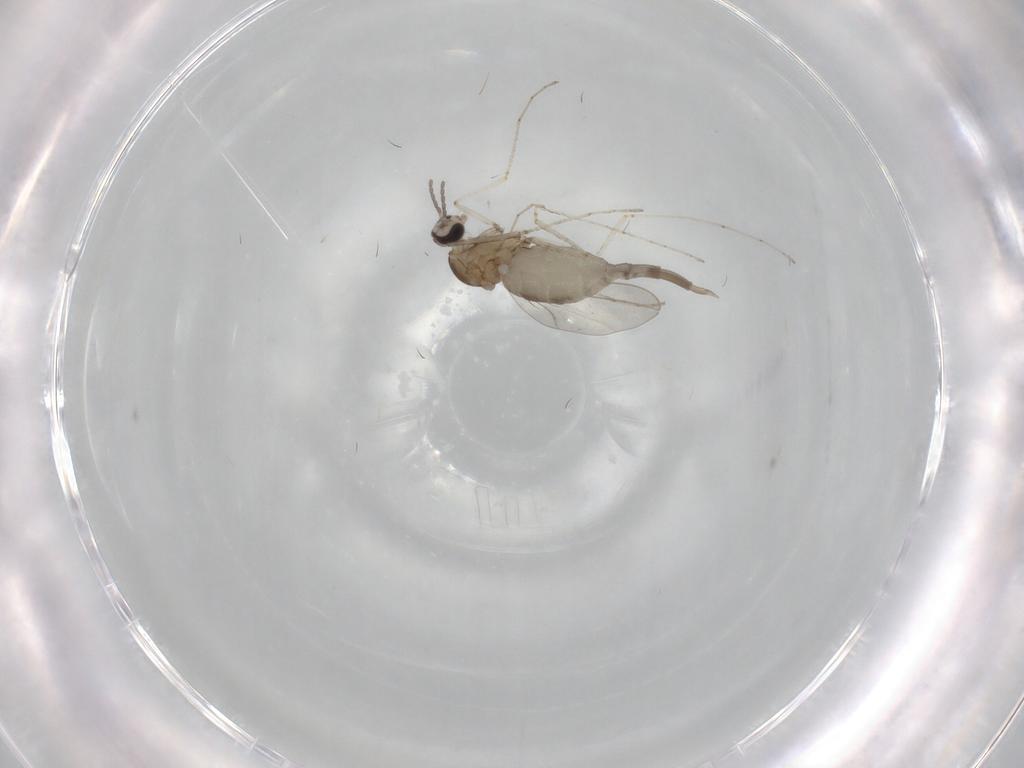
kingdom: Animalia
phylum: Arthropoda
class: Insecta
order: Diptera
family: Cecidomyiidae
